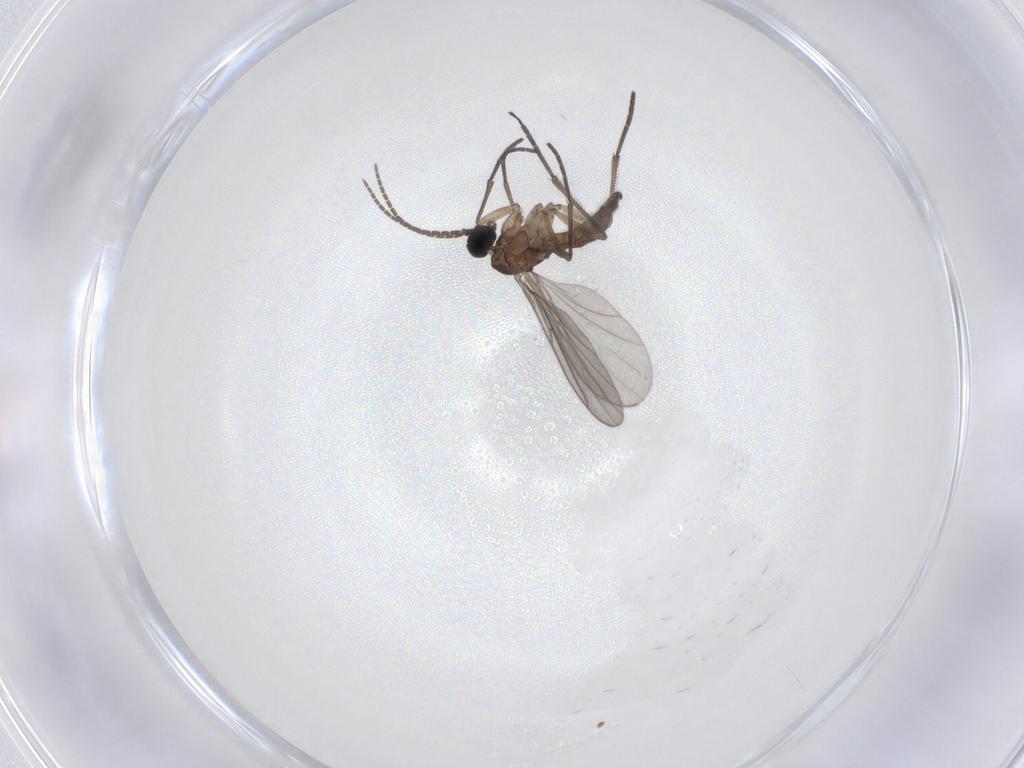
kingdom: Animalia
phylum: Arthropoda
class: Insecta
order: Diptera
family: Sciaridae
